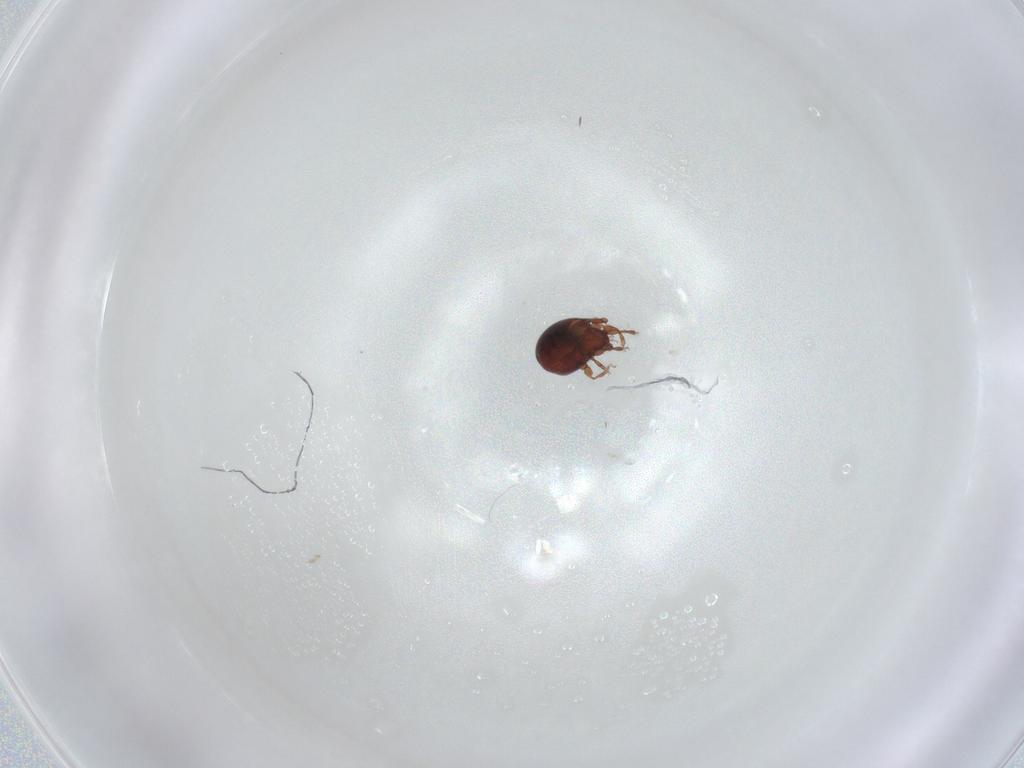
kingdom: Animalia
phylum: Arthropoda
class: Arachnida
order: Sarcoptiformes
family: Humerobatidae
